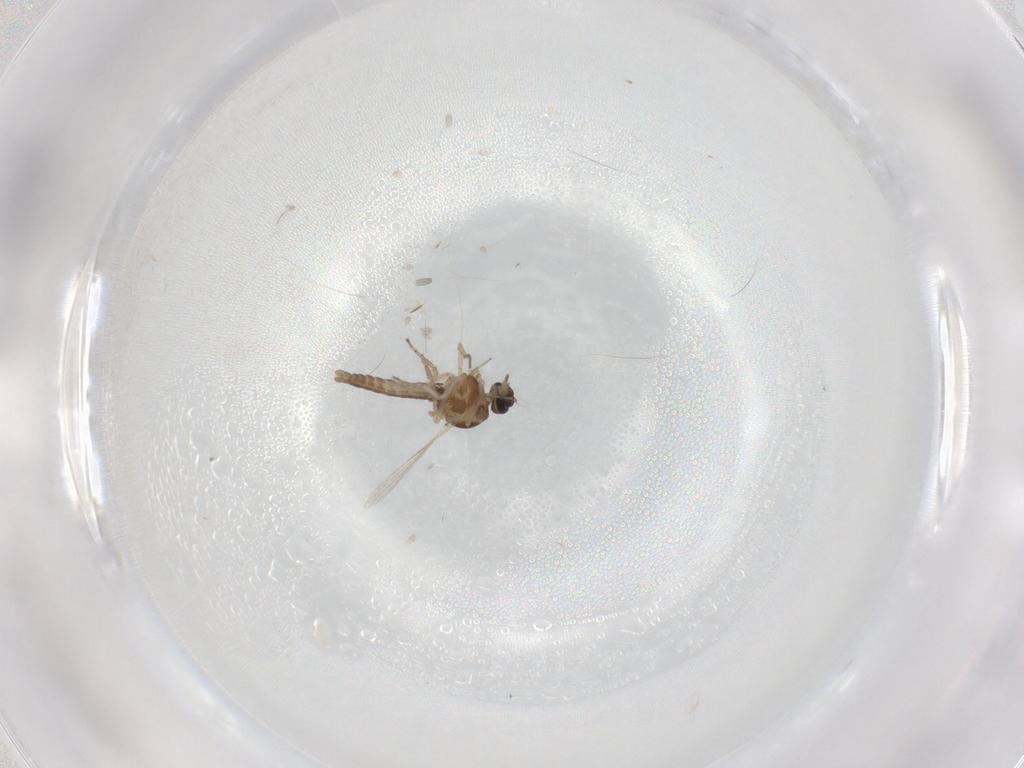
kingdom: Animalia
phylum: Arthropoda
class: Insecta
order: Diptera
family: Ceratopogonidae
